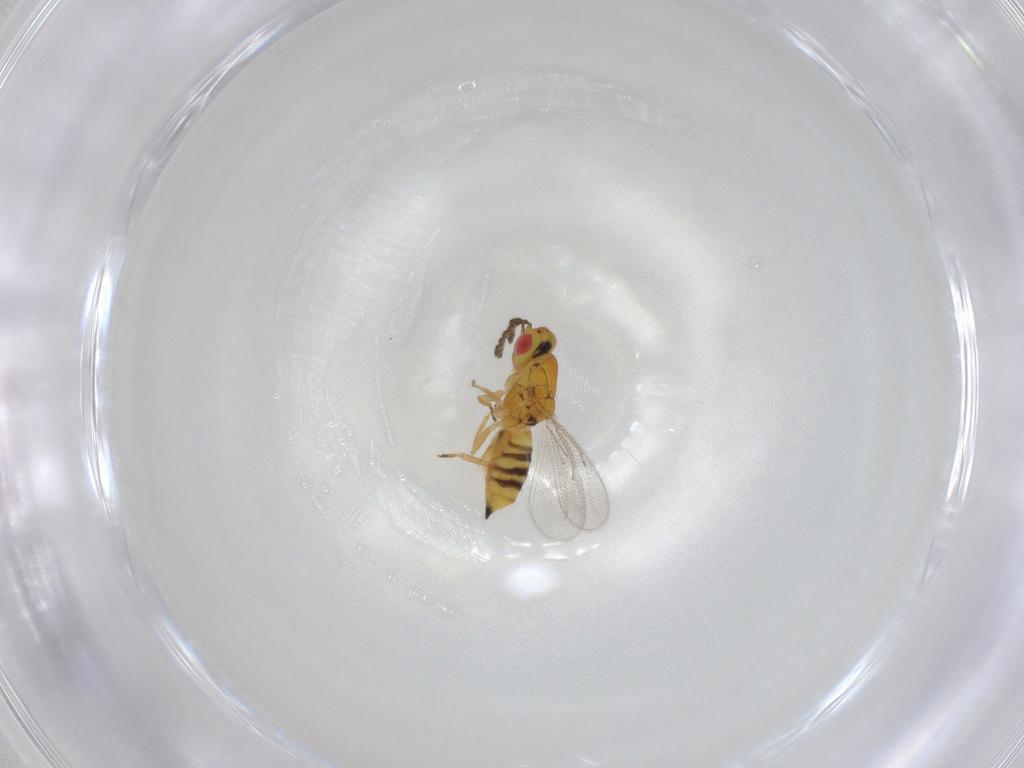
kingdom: Animalia
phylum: Arthropoda
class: Insecta
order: Hymenoptera
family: Eulophidae
